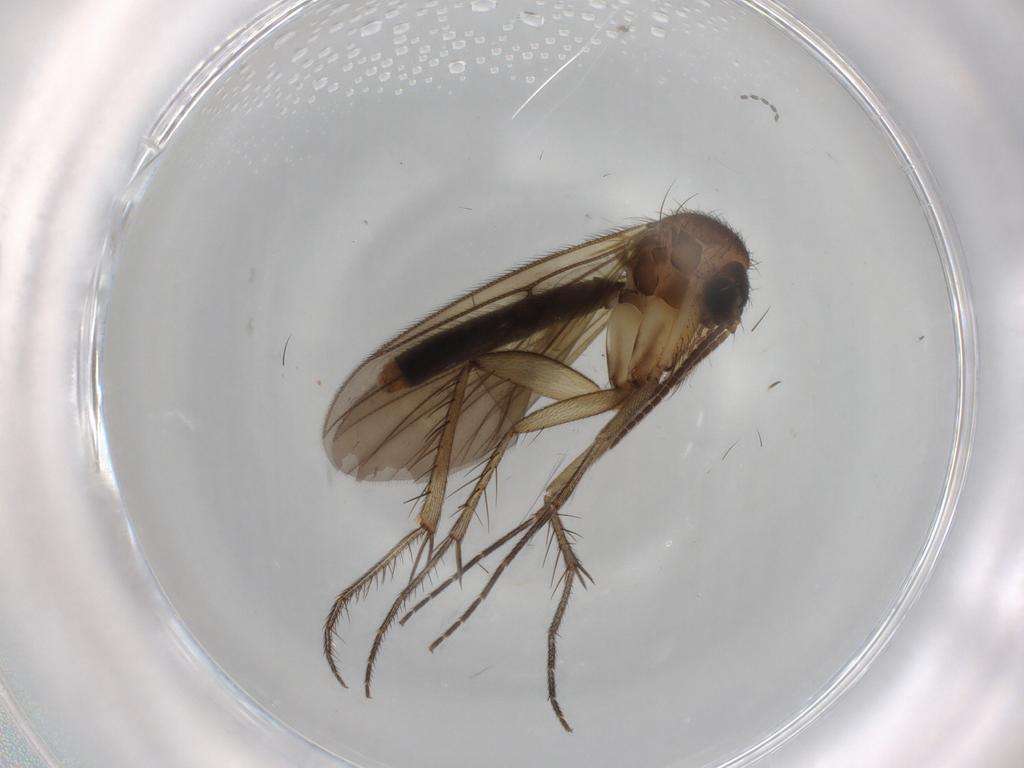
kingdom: Animalia
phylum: Arthropoda
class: Insecta
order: Diptera
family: Mycetophilidae
